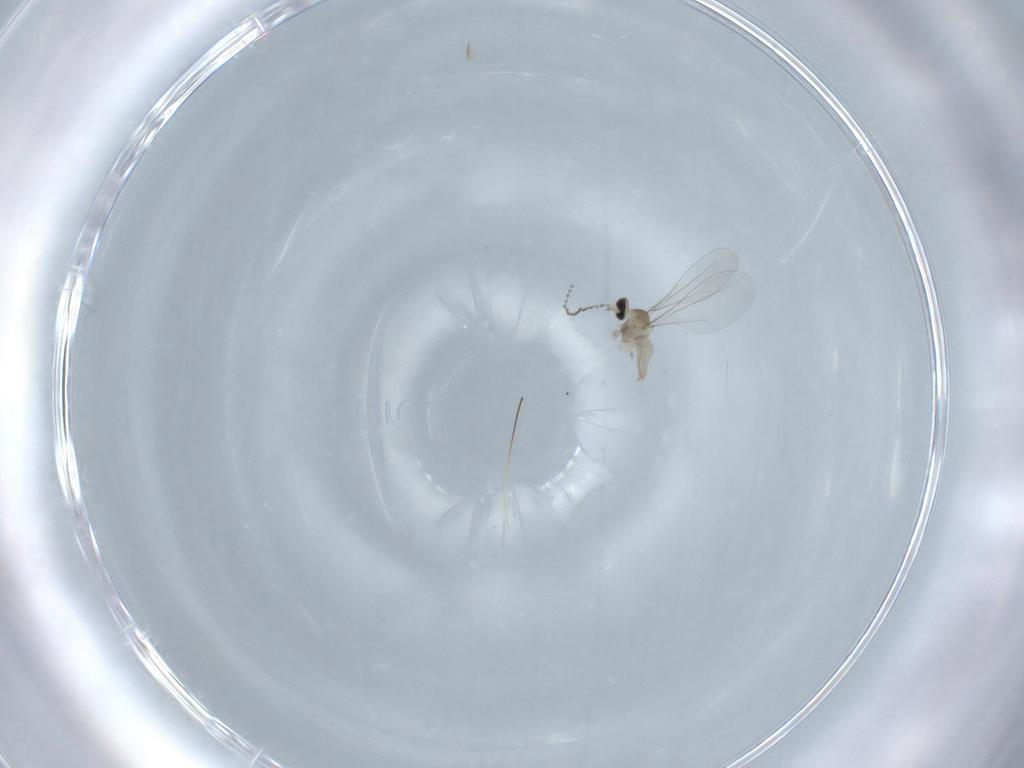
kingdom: Animalia
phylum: Arthropoda
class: Insecta
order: Diptera
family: Cecidomyiidae
